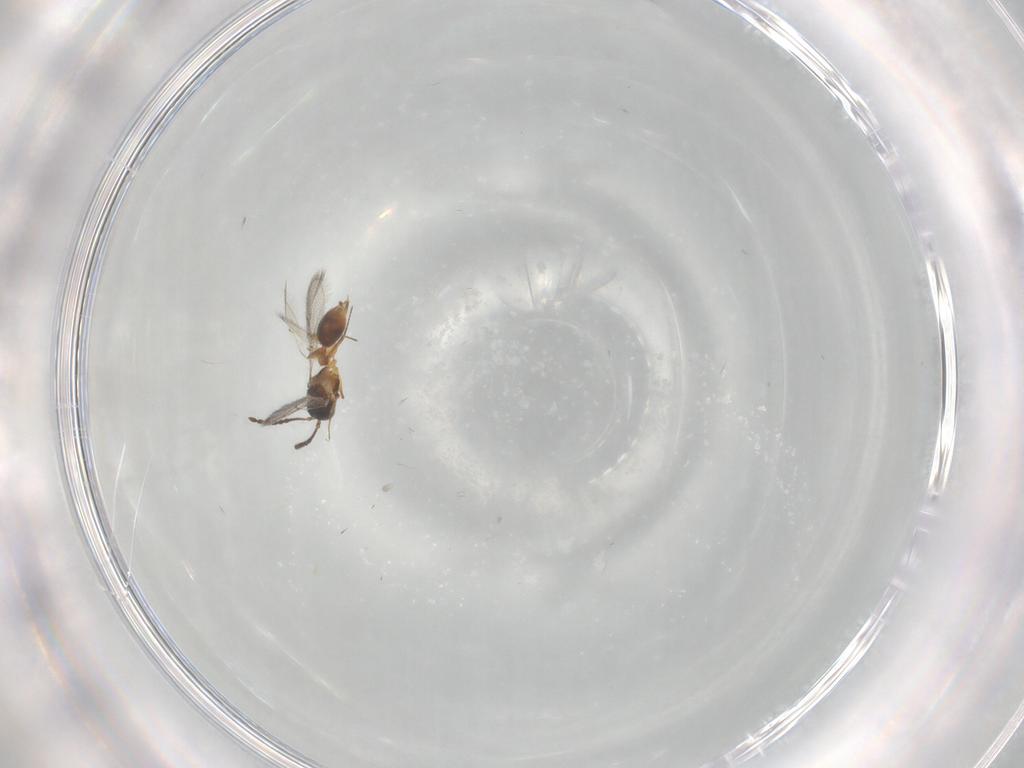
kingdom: Animalia
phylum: Arthropoda
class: Insecta
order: Hymenoptera
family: Figitidae
